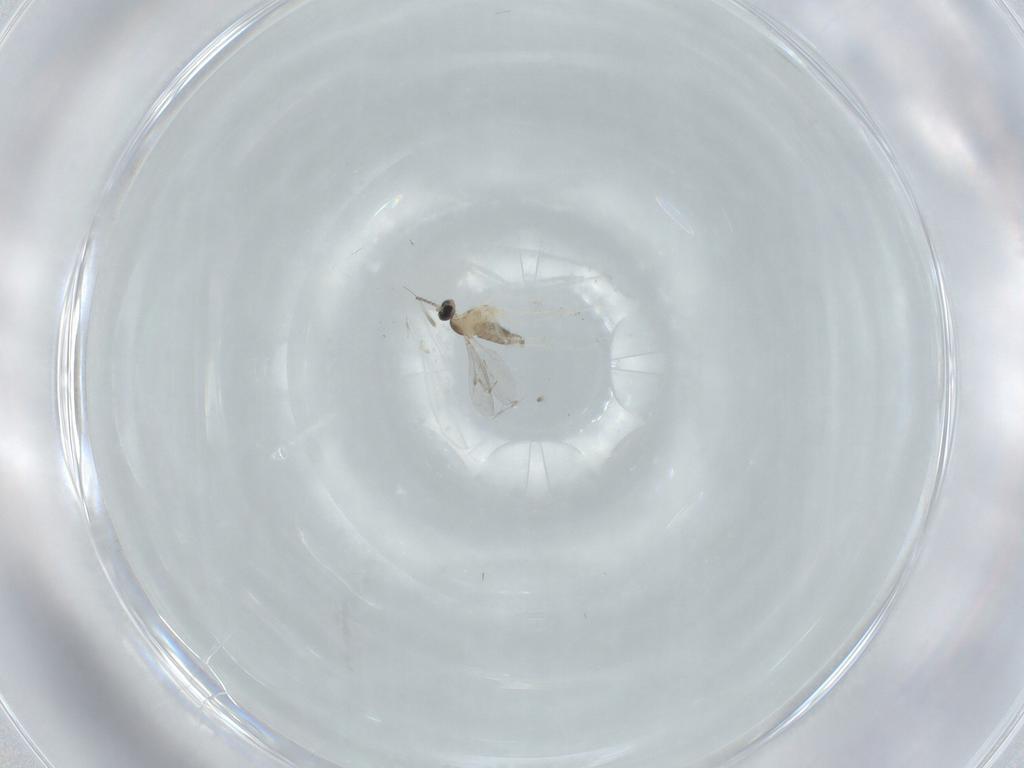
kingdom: Animalia
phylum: Arthropoda
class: Insecta
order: Diptera
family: Cecidomyiidae
